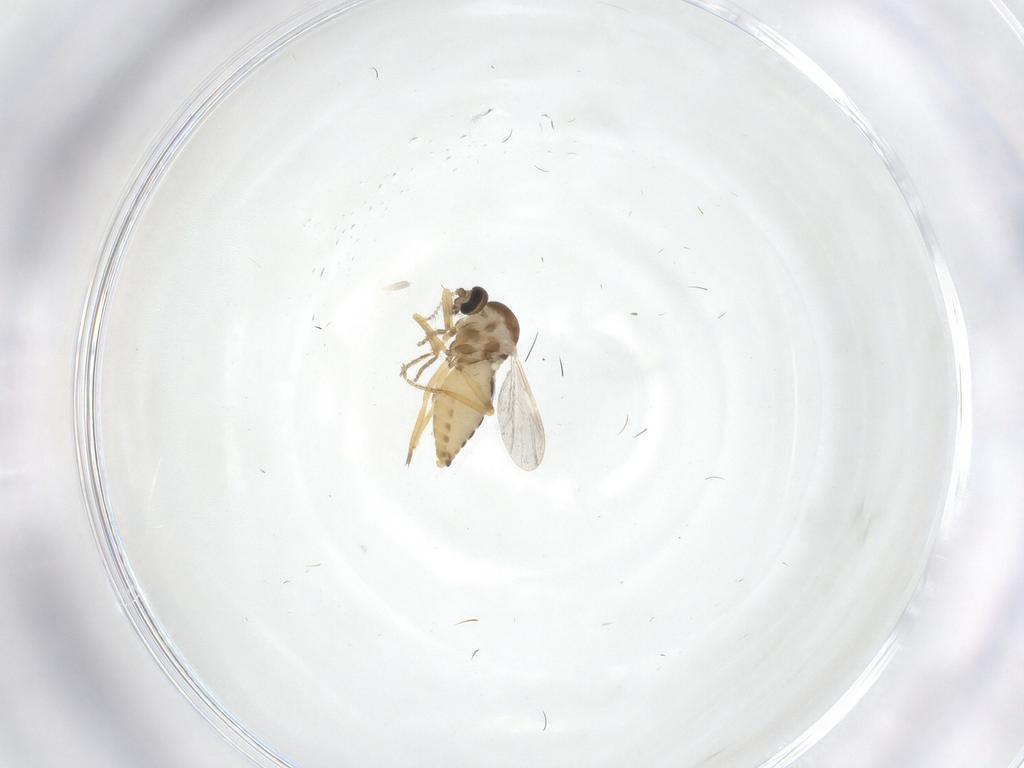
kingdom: Animalia
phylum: Arthropoda
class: Insecta
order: Diptera
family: Ceratopogonidae
